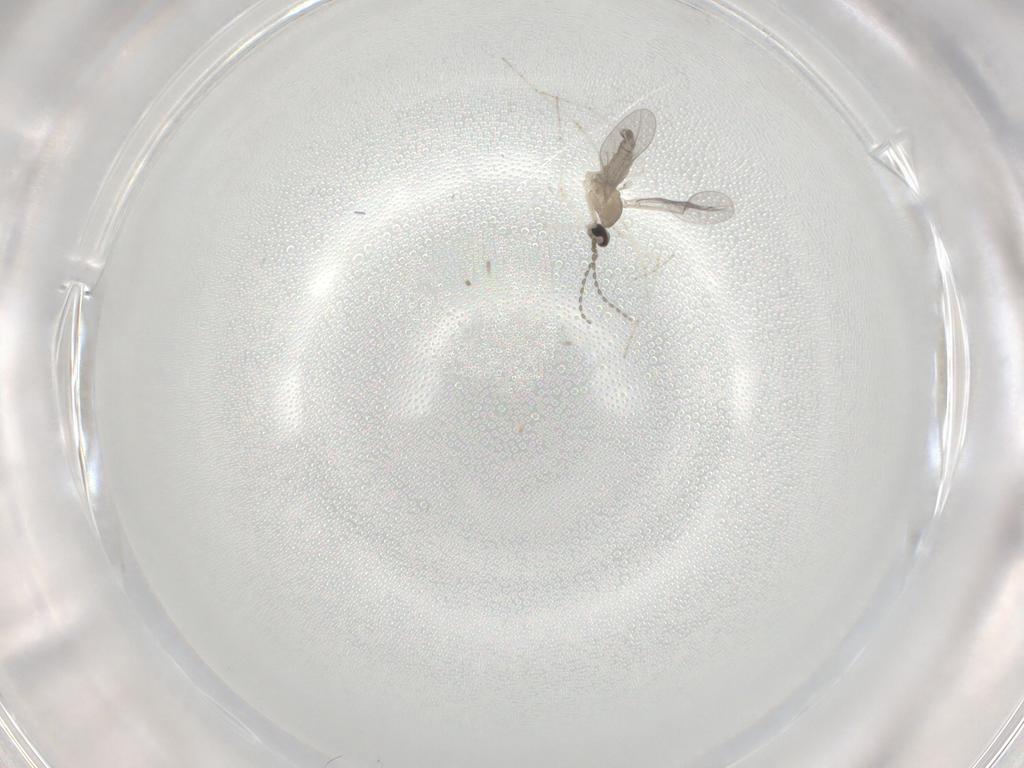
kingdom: Animalia
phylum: Arthropoda
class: Insecta
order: Diptera
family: Cecidomyiidae
